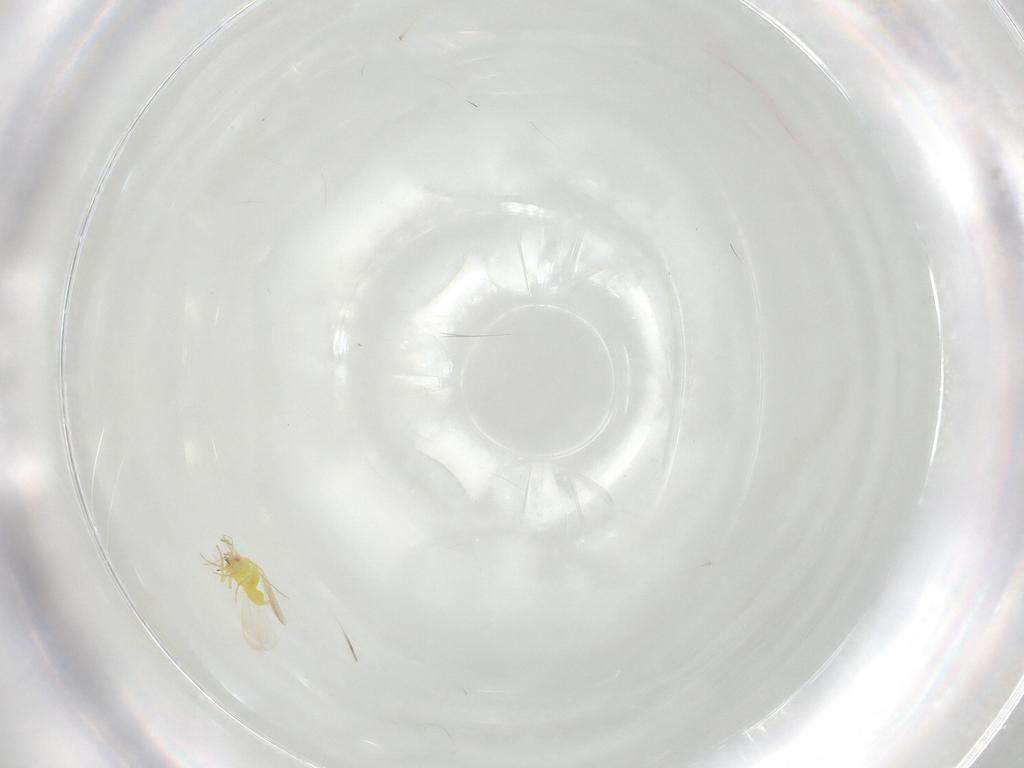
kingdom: Animalia
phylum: Arthropoda
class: Insecta
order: Hemiptera
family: Aleyrodidae
